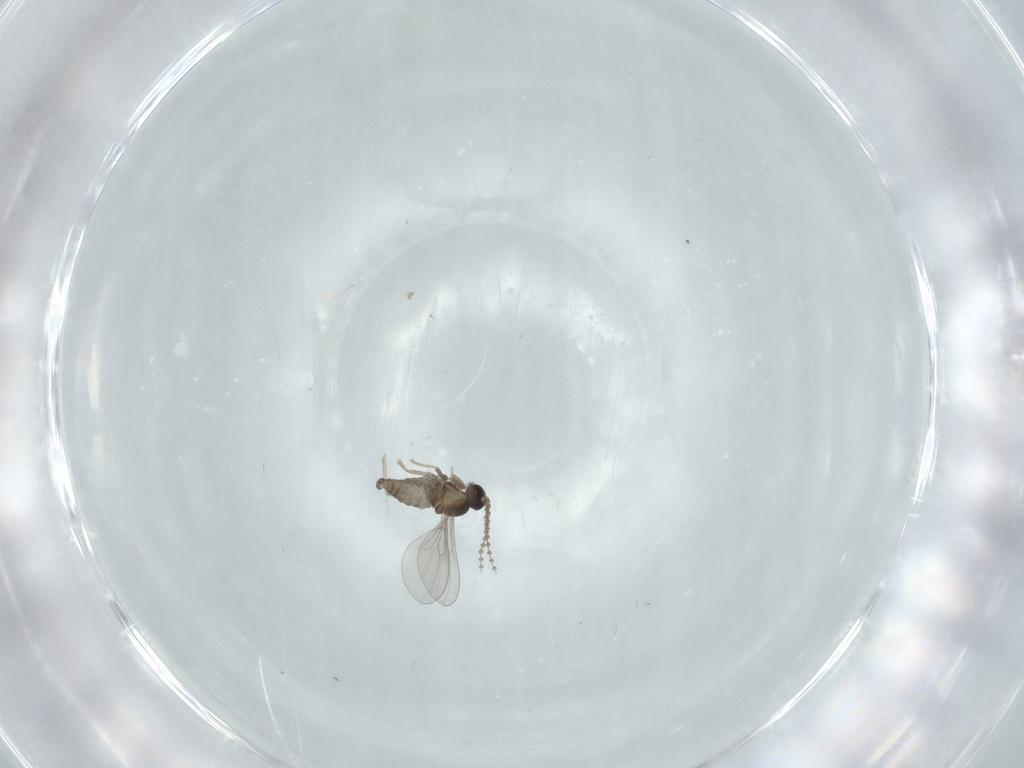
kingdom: Animalia
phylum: Arthropoda
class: Insecta
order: Diptera
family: Cecidomyiidae
